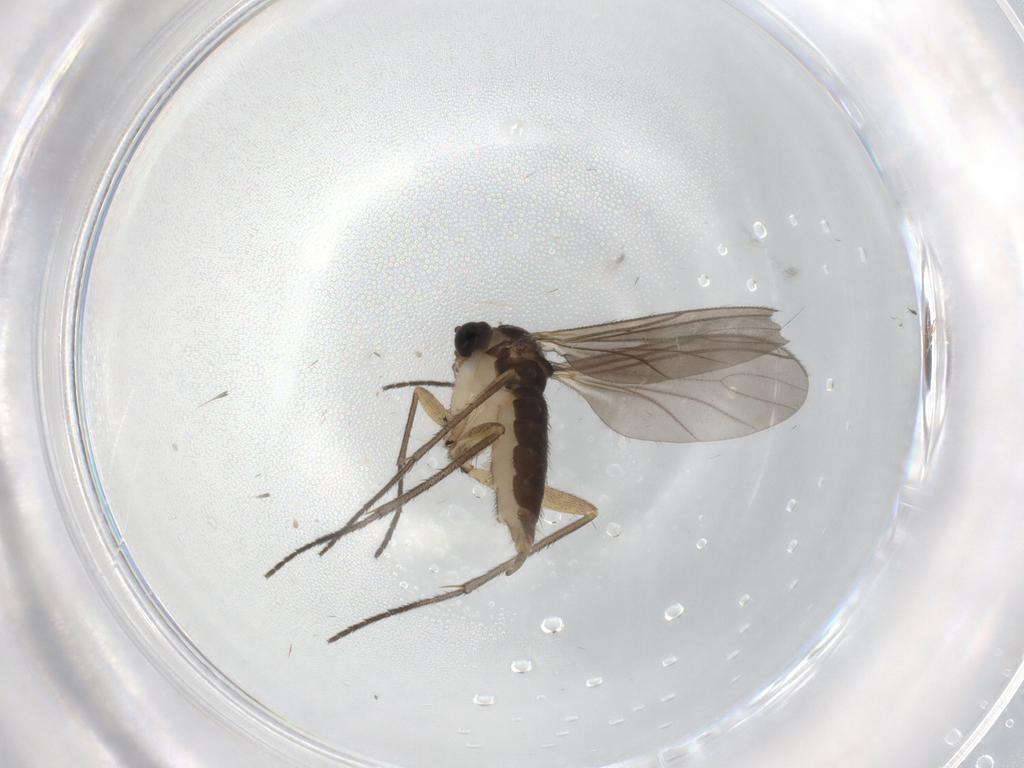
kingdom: Animalia
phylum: Arthropoda
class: Insecta
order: Diptera
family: Sciaridae
